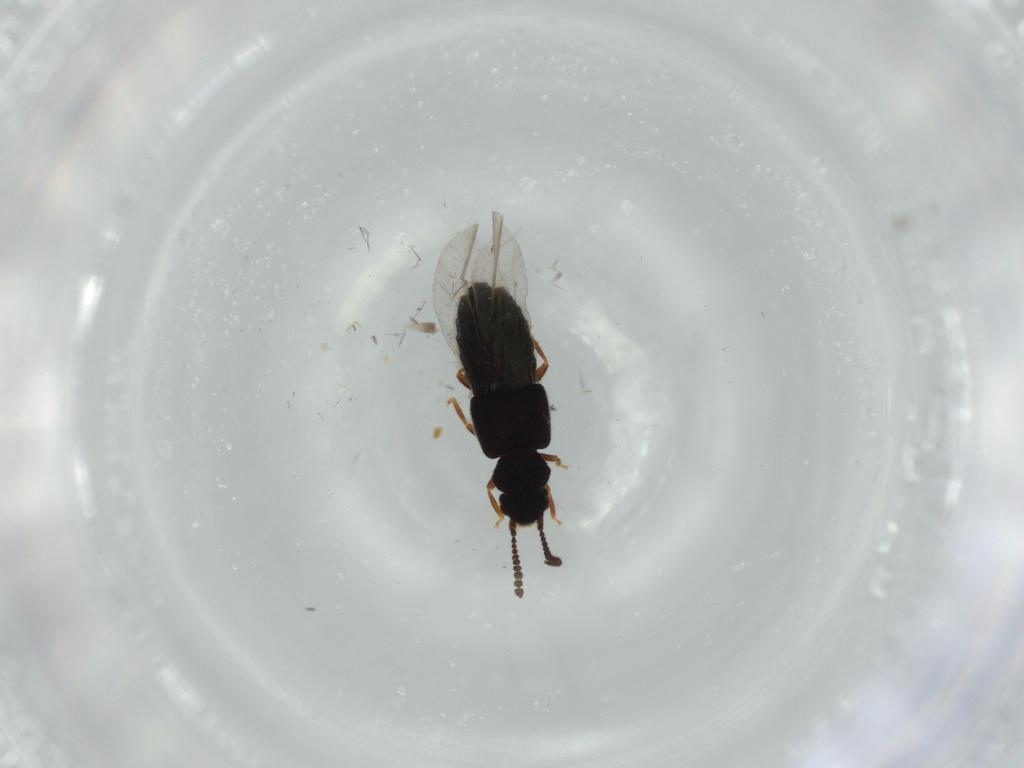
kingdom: Animalia
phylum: Arthropoda
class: Insecta
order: Coleoptera
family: Staphylinidae
